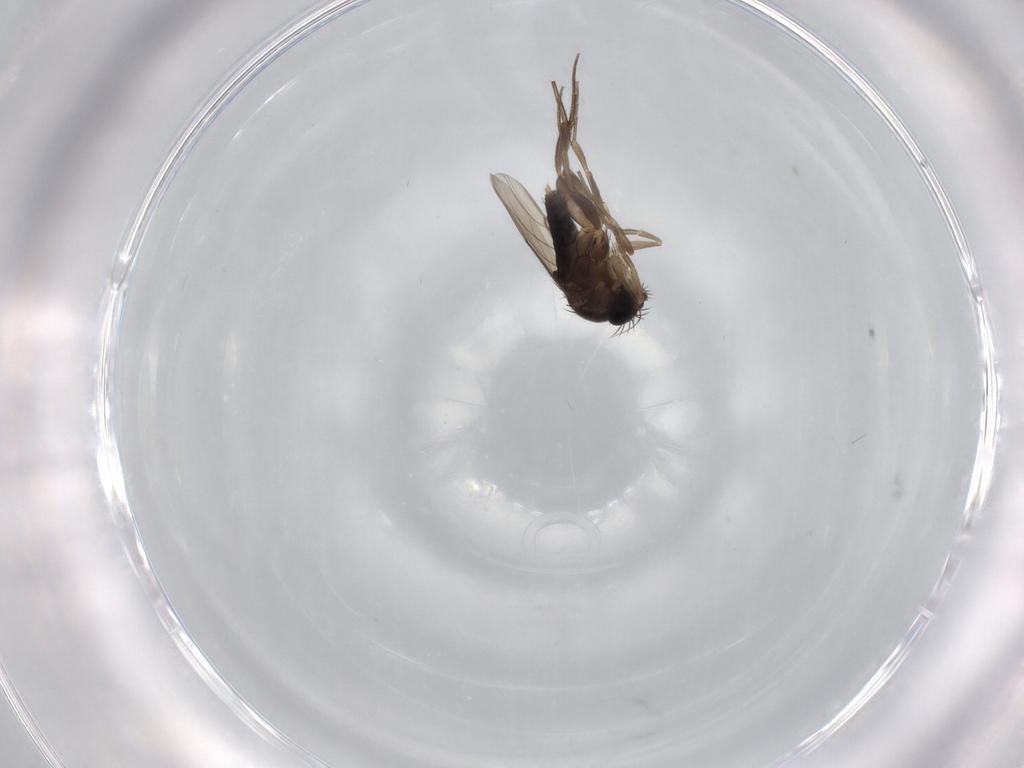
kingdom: Animalia
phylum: Arthropoda
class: Insecta
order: Diptera
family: Phoridae
